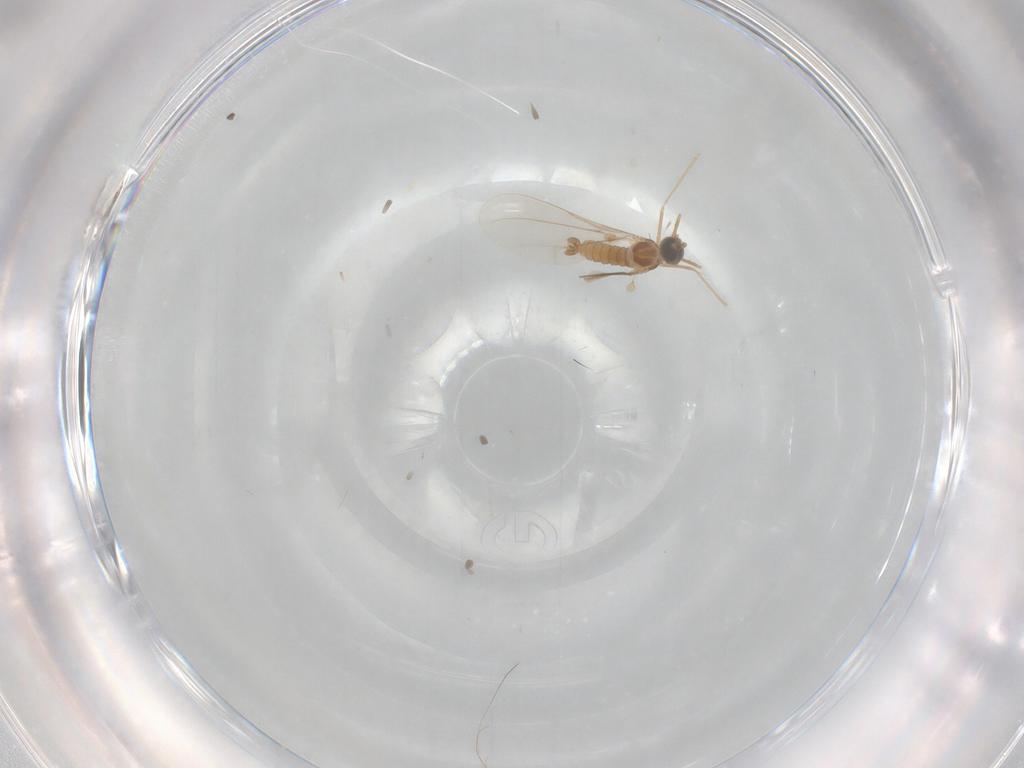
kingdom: Animalia
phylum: Arthropoda
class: Insecta
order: Diptera
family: Cecidomyiidae
